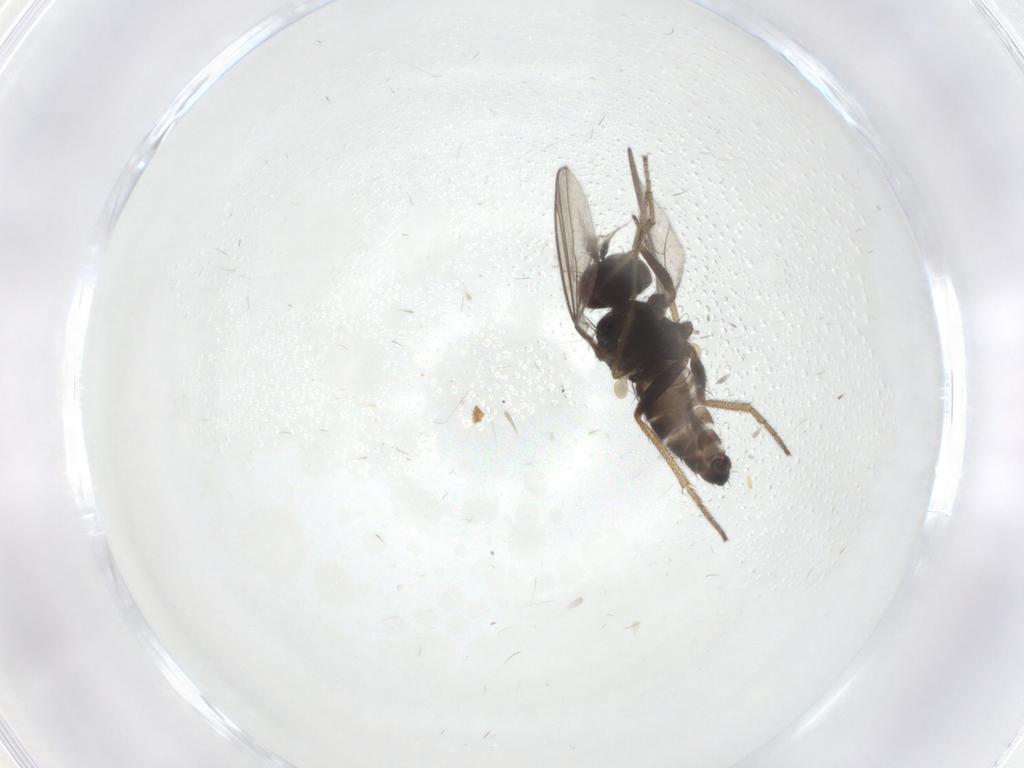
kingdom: Animalia
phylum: Arthropoda
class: Insecta
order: Diptera
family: Dolichopodidae
